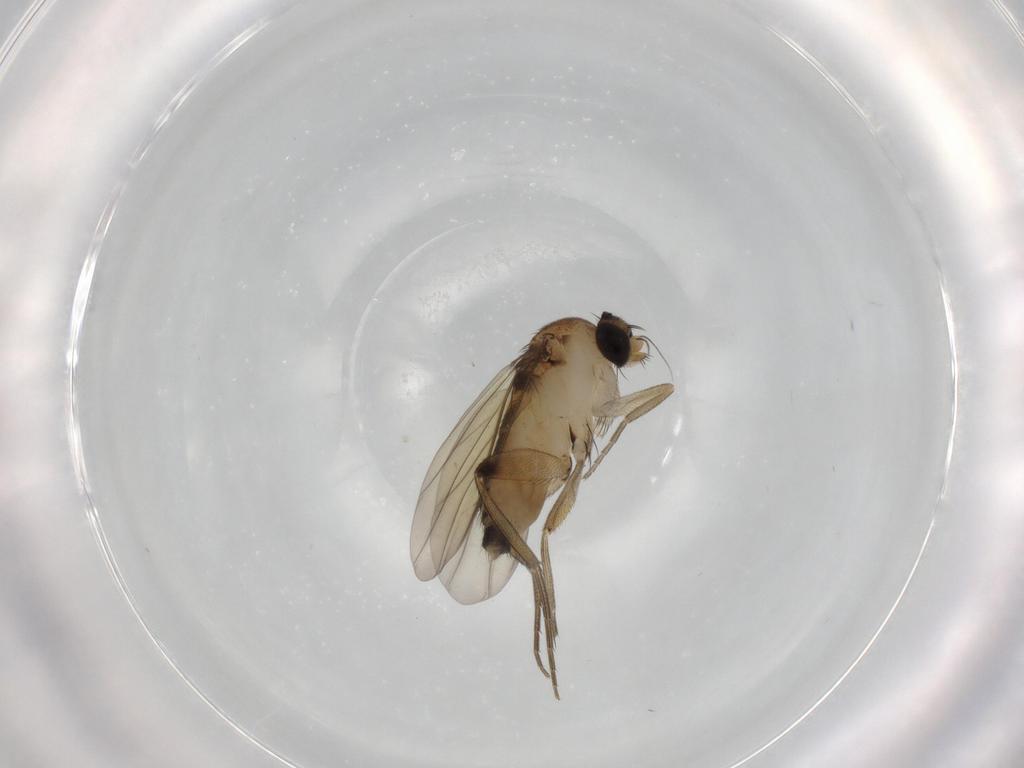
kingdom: Animalia
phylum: Arthropoda
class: Insecta
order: Diptera
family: Phoridae
